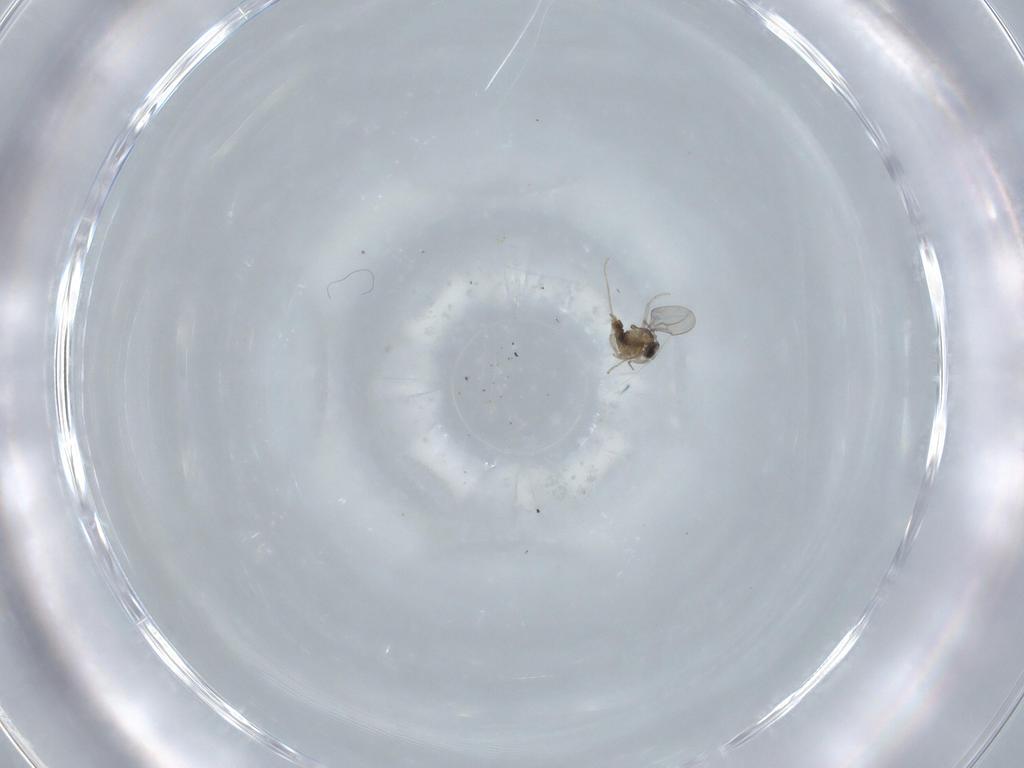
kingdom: Animalia
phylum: Arthropoda
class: Insecta
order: Diptera
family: Cecidomyiidae
